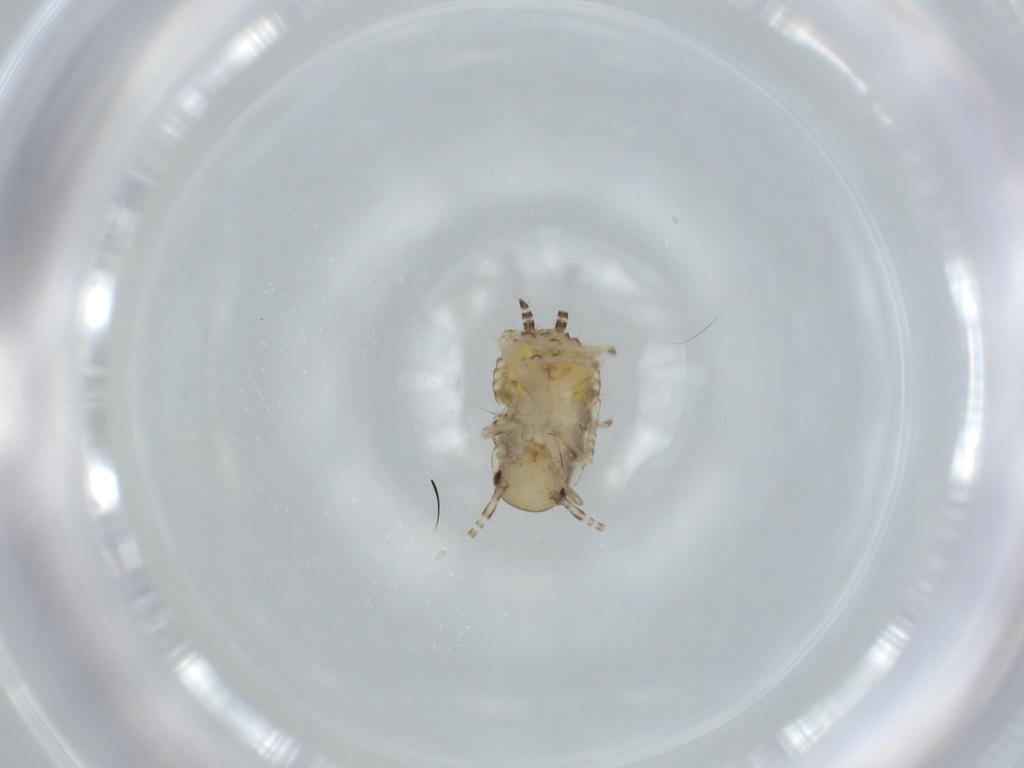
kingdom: Animalia
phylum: Arthropoda
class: Insecta
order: Blattodea
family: Ectobiidae
